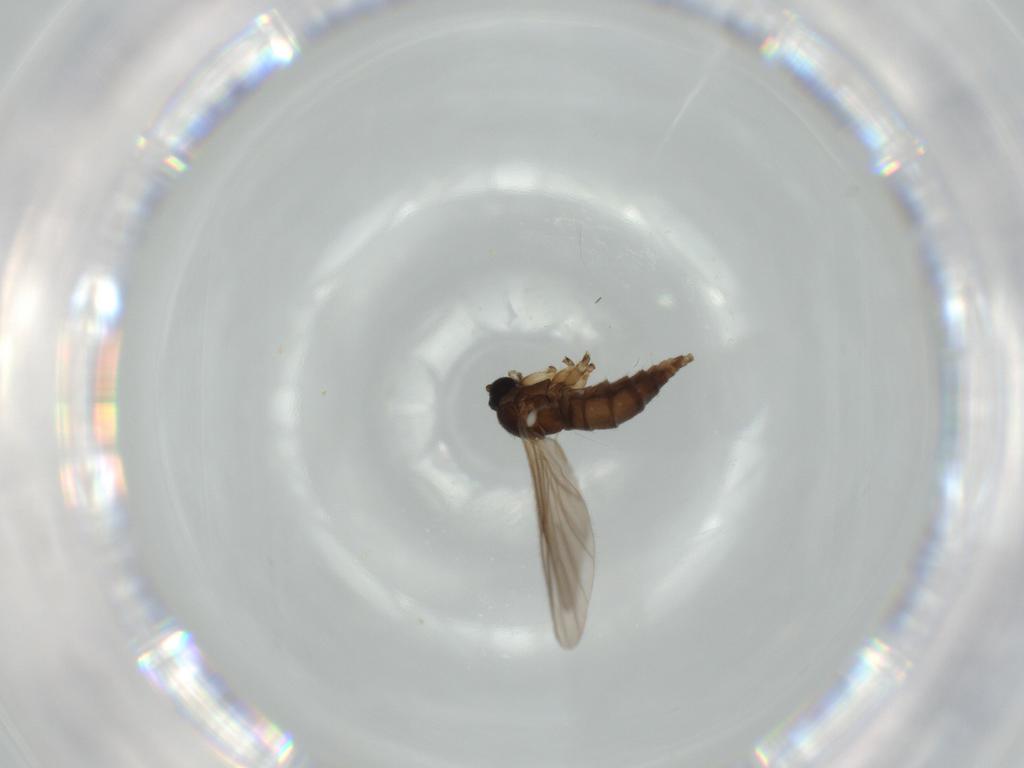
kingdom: Animalia
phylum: Arthropoda
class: Insecta
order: Diptera
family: Sciaridae
